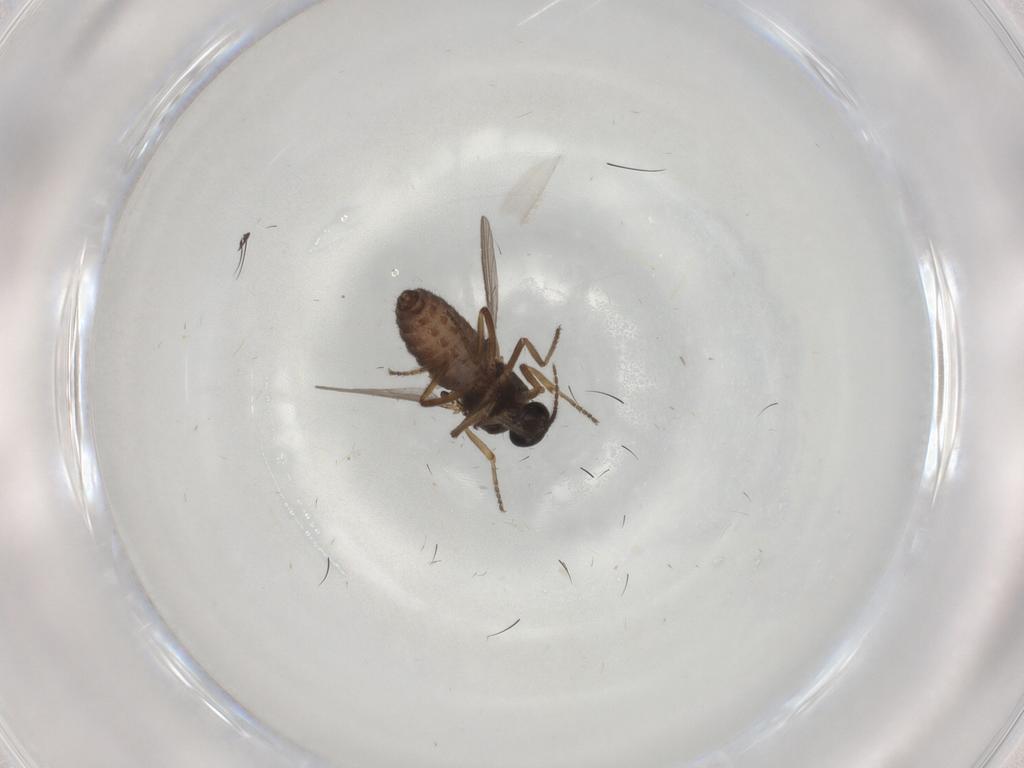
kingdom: Animalia
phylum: Arthropoda
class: Insecta
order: Diptera
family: Ceratopogonidae
